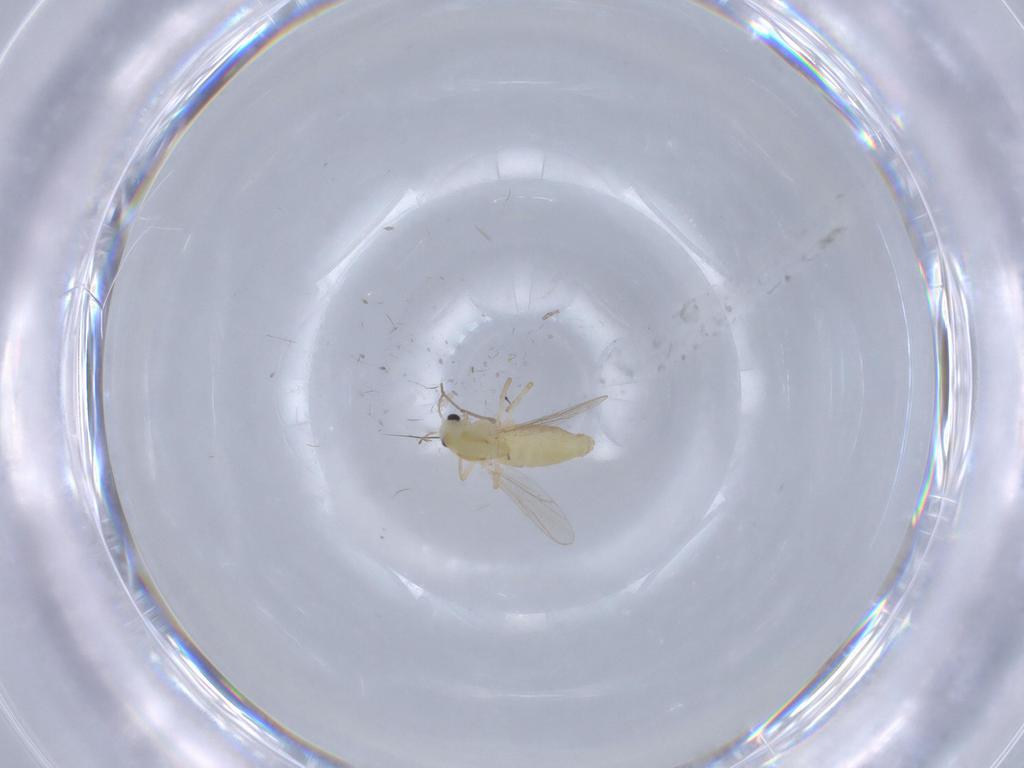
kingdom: Animalia
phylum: Arthropoda
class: Insecta
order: Diptera
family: Chironomidae
